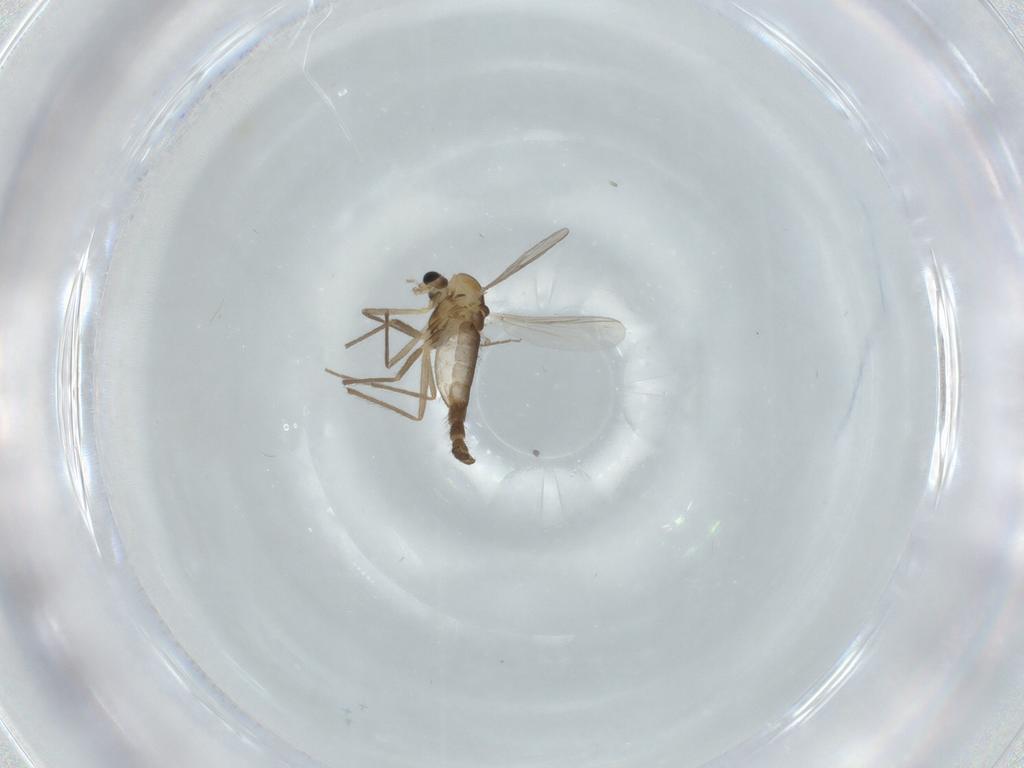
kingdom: Animalia
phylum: Arthropoda
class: Insecta
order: Diptera
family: Chironomidae
